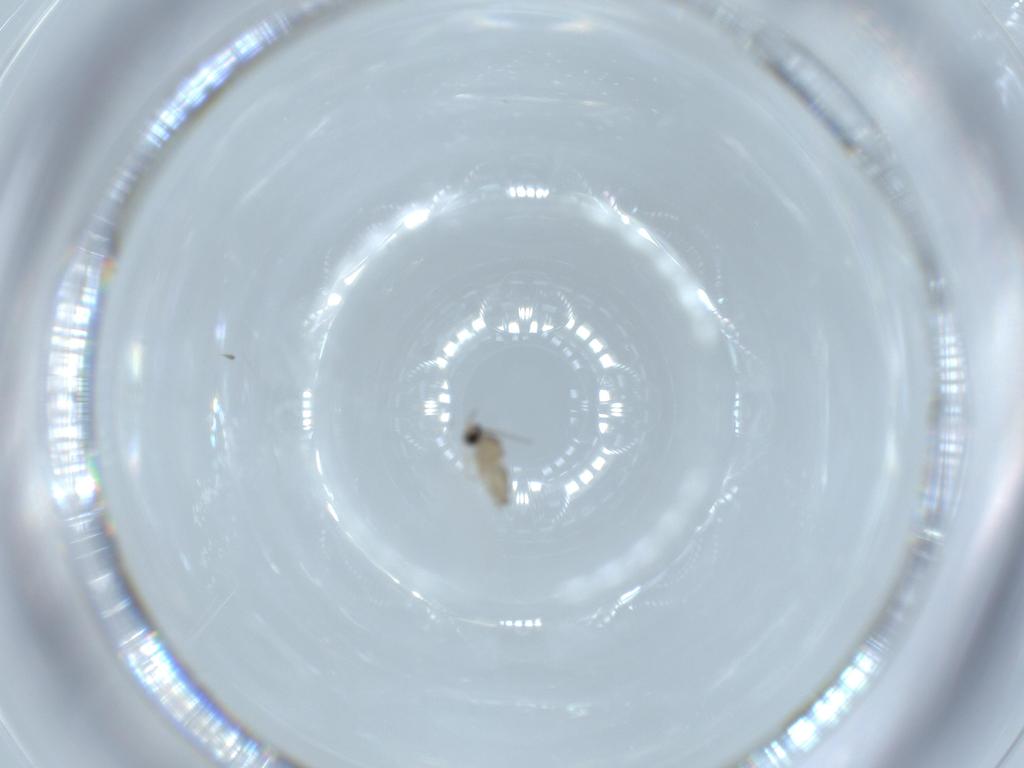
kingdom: Animalia
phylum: Arthropoda
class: Insecta
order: Diptera
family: Cecidomyiidae
